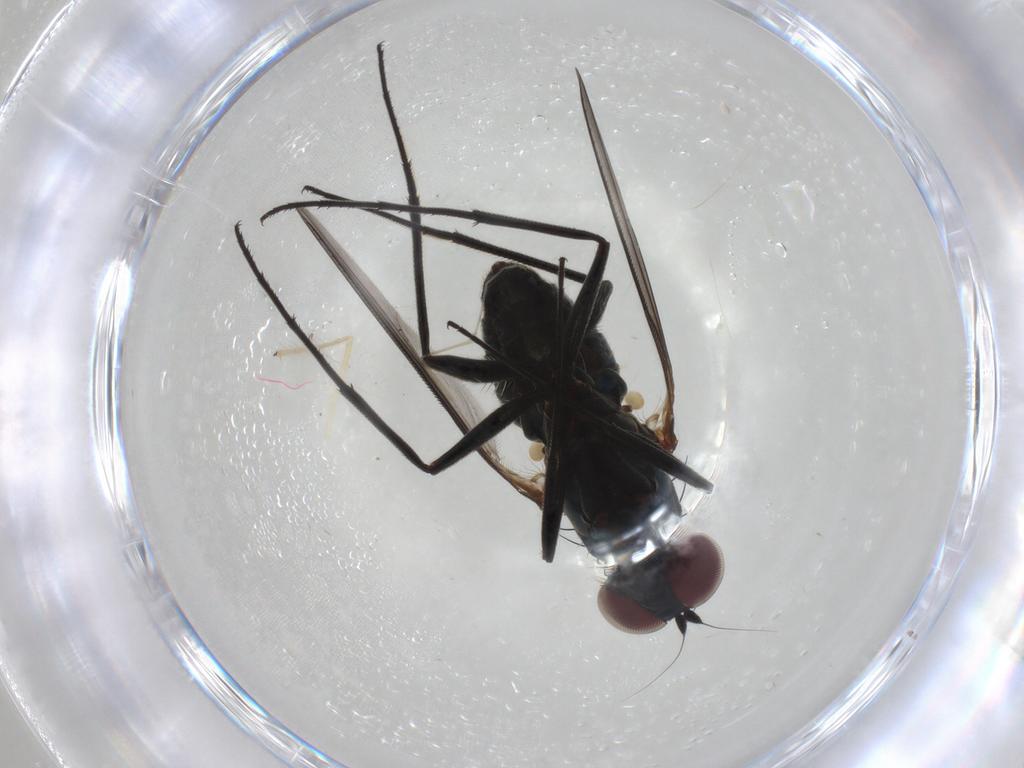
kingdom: Animalia
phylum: Arthropoda
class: Insecta
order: Diptera
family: Dolichopodidae
